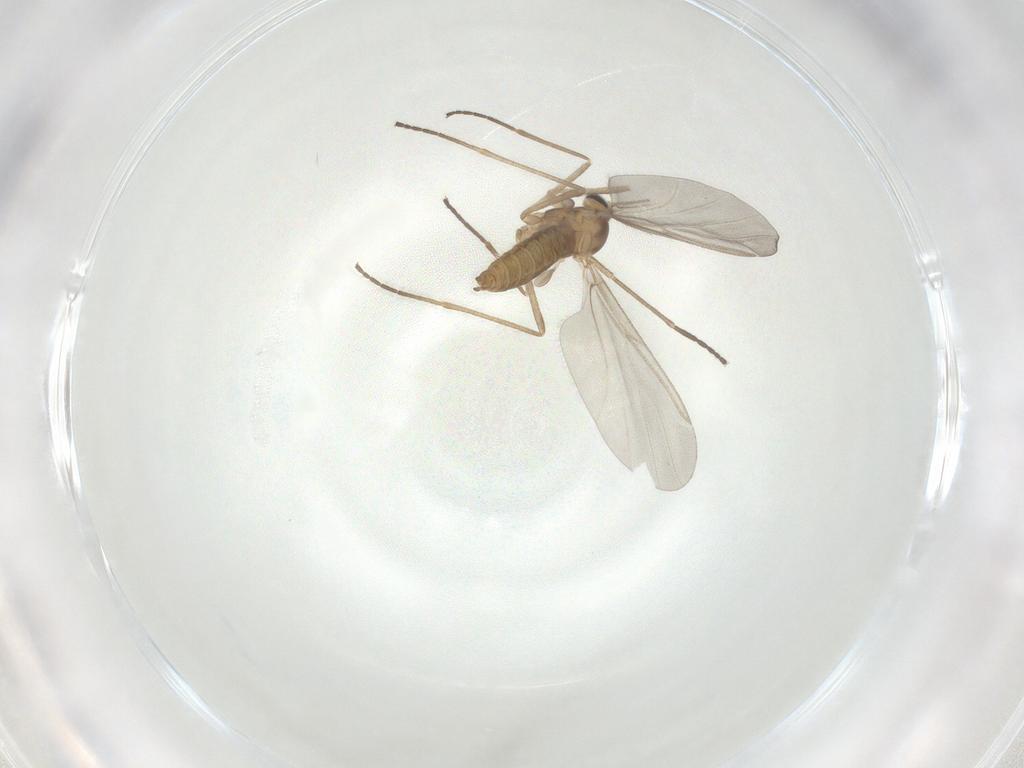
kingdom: Animalia
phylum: Arthropoda
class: Insecta
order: Diptera
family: Cecidomyiidae
